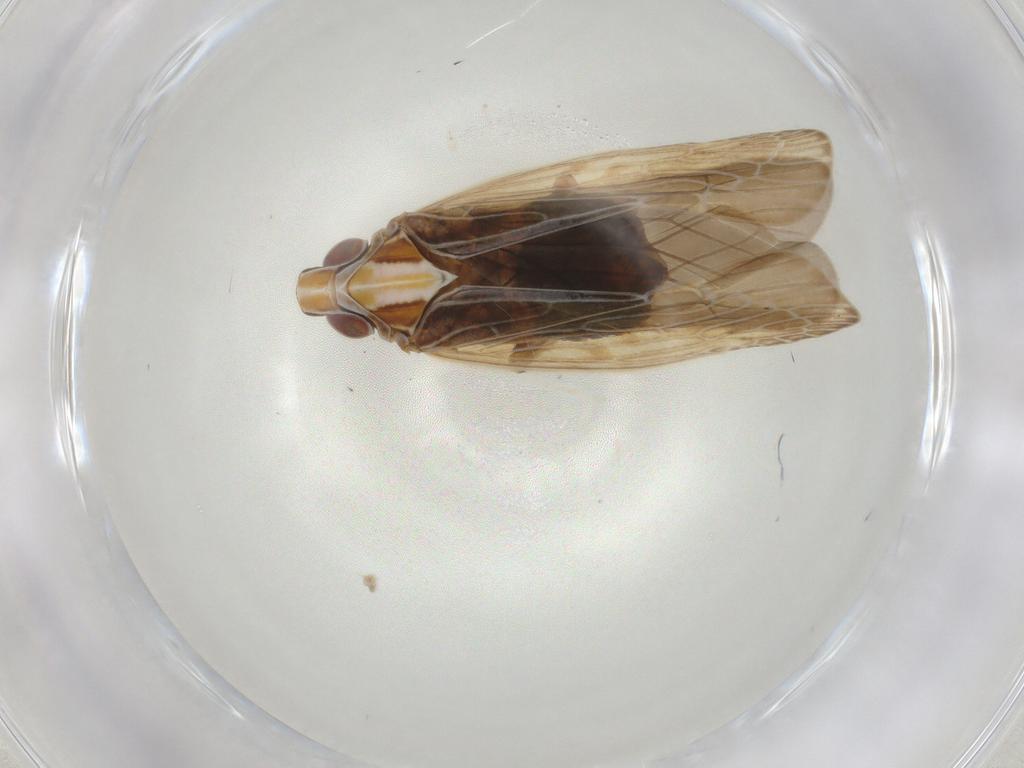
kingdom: Animalia
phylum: Arthropoda
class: Insecta
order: Hemiptera
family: Achilidae
